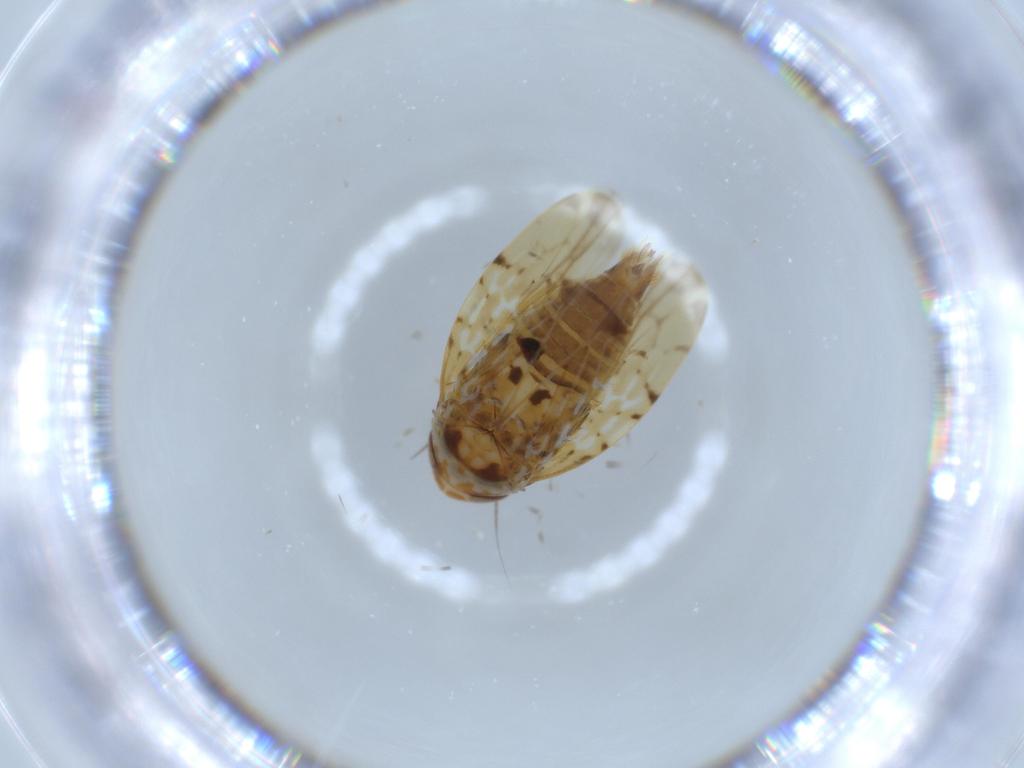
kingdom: Animalia
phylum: Arthropoda
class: Insecta
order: Hemiptera
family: Cicadellidae
